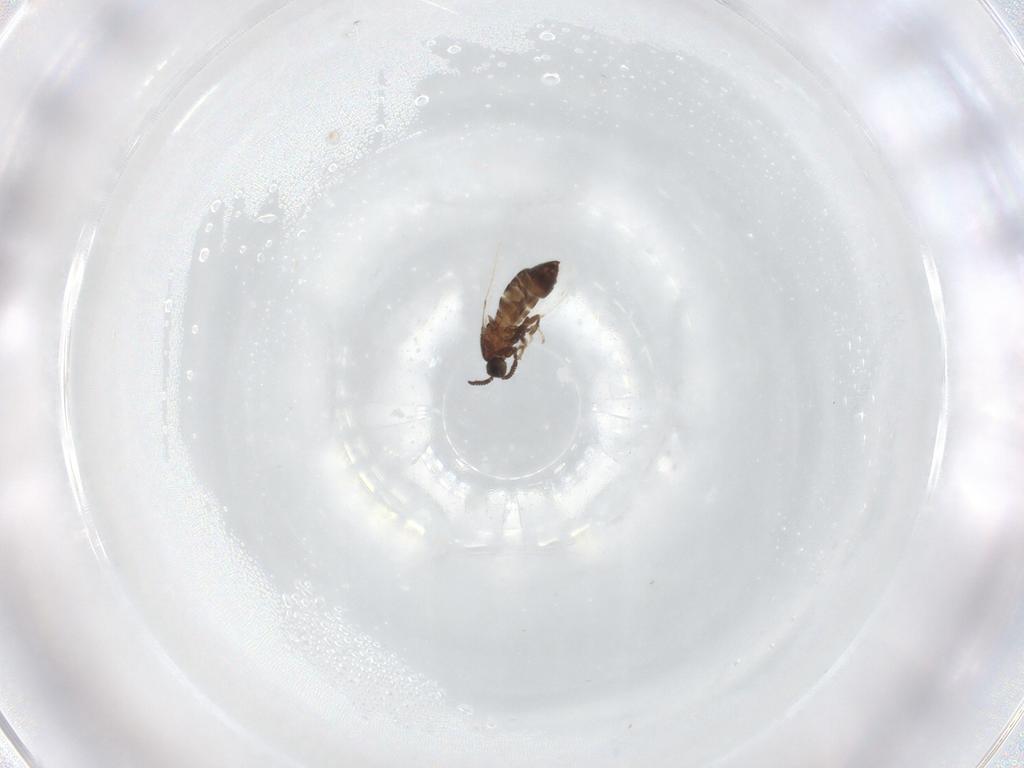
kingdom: Animalia
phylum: Arthropoda
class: Insecta
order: Diptera
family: Scatopsidae
